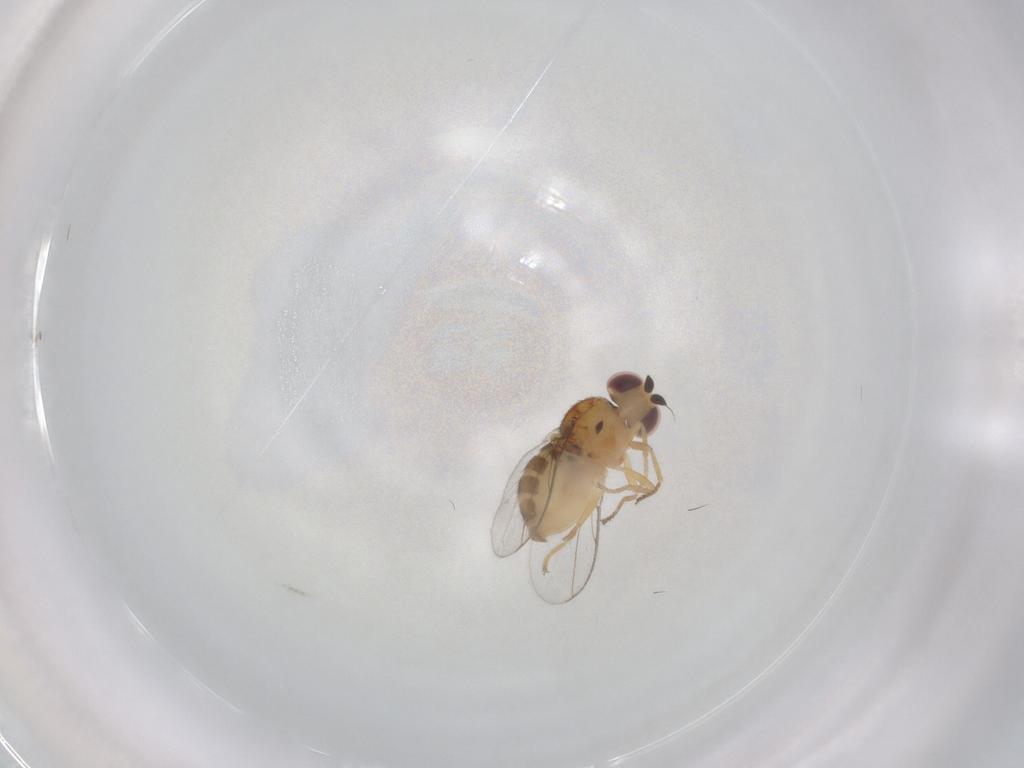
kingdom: Animalia
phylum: Arthropoda
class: Insecta
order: Diptera
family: Chloropidae
